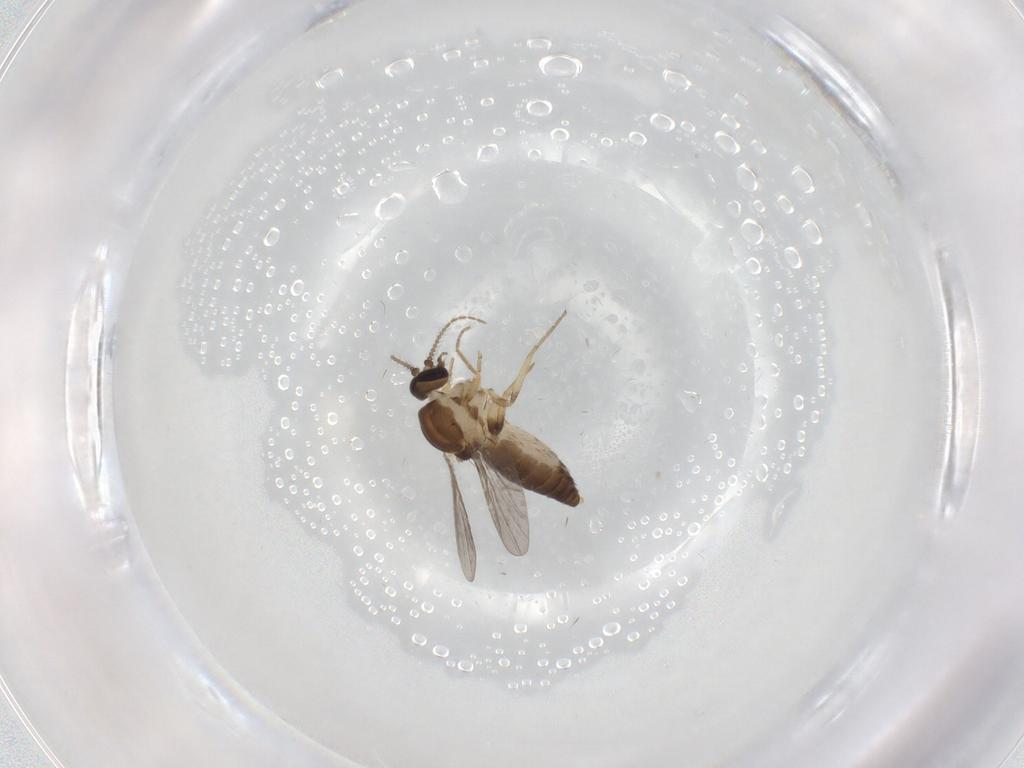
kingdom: Animalia
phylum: Arthropoda
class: Insecta
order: Diptera
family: Ceratopogonidae
